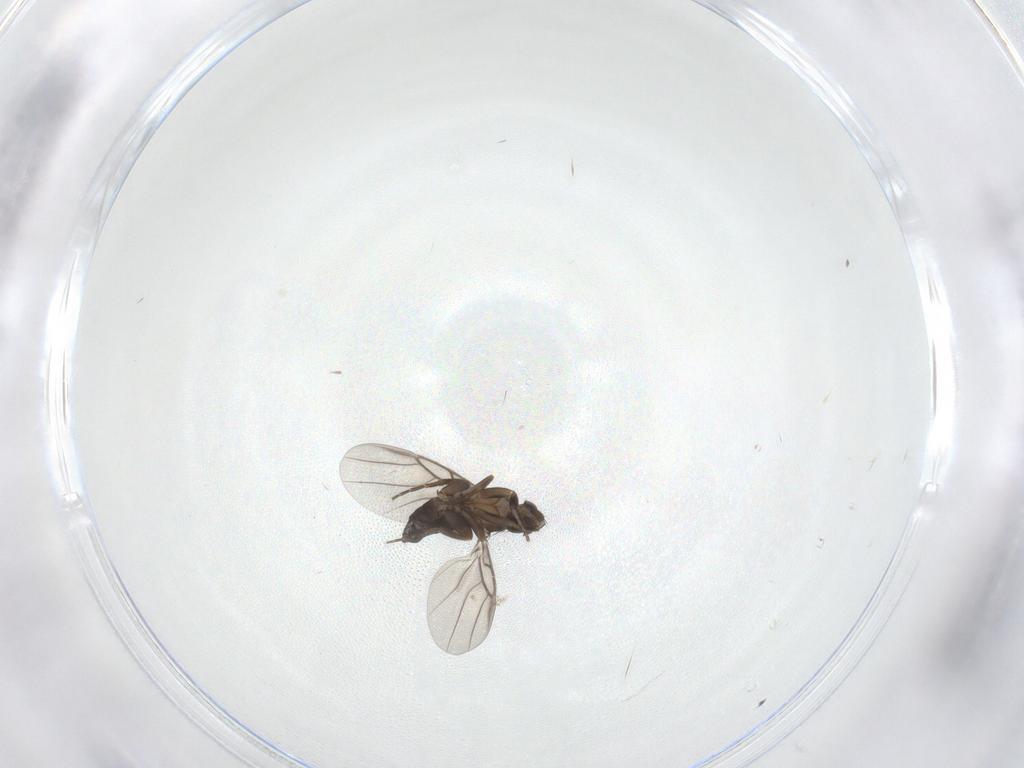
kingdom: Animalia
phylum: Arthropoda
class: Insecta
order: Diptera
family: Phoridae
